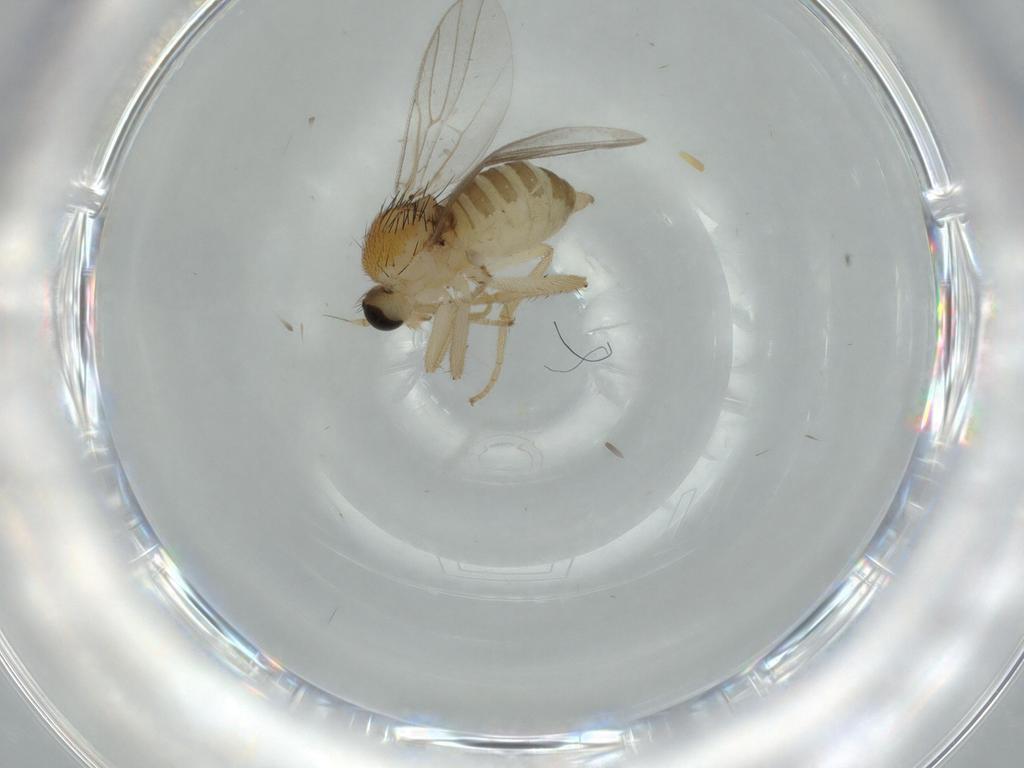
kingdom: Animalia
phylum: Arthropoda
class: Insecta
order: Diptera
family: Hybotidae
